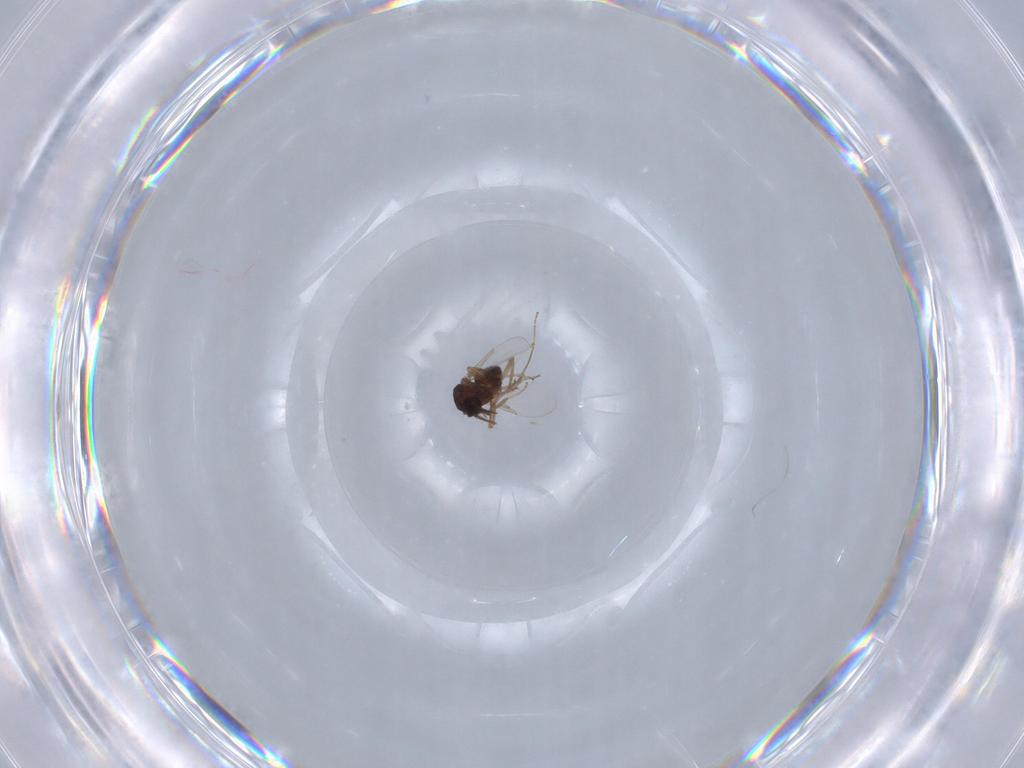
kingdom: Animalia
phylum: Arthropoda
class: Insecta
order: Diptera
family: Ceratopogonidae
